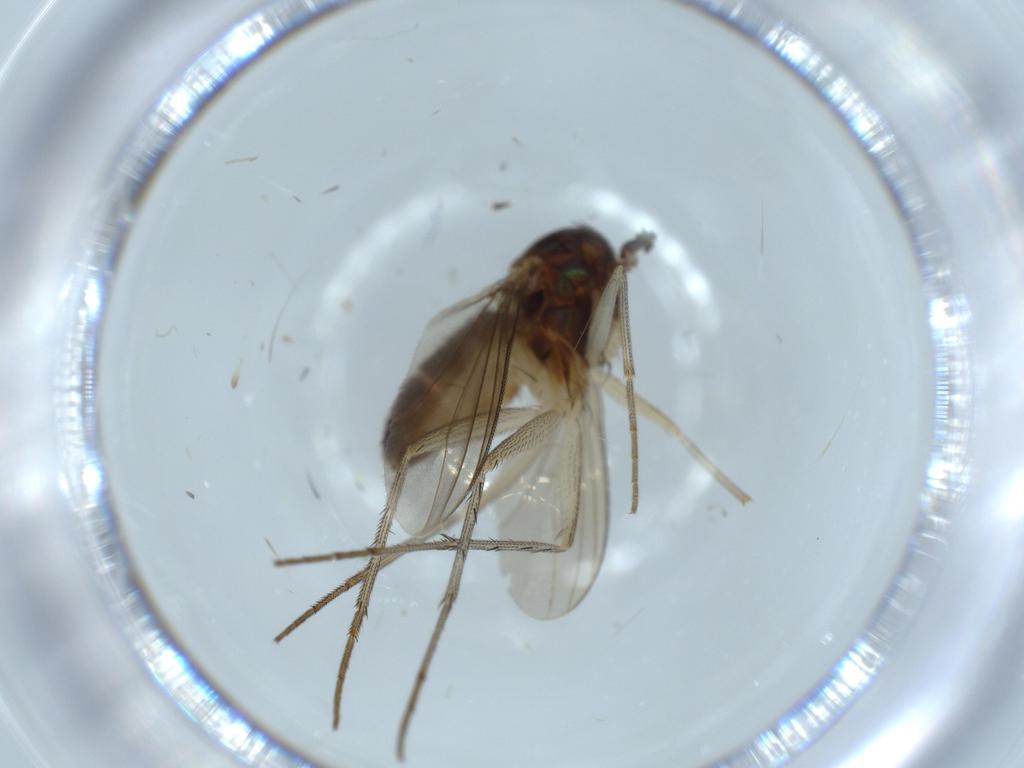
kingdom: Animalia
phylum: Arthropoda
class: Insecta
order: Diptera
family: Dolichopodidae
